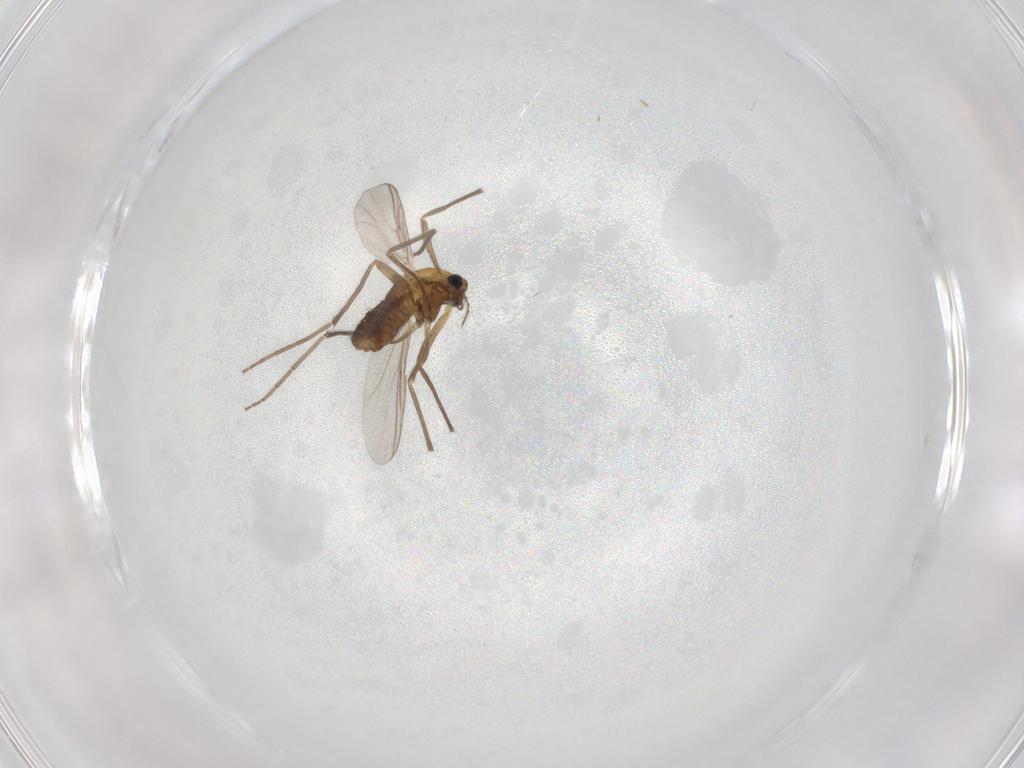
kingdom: Animalia
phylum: Arthropoda
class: Insecta
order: Diptera
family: Chironomidae
